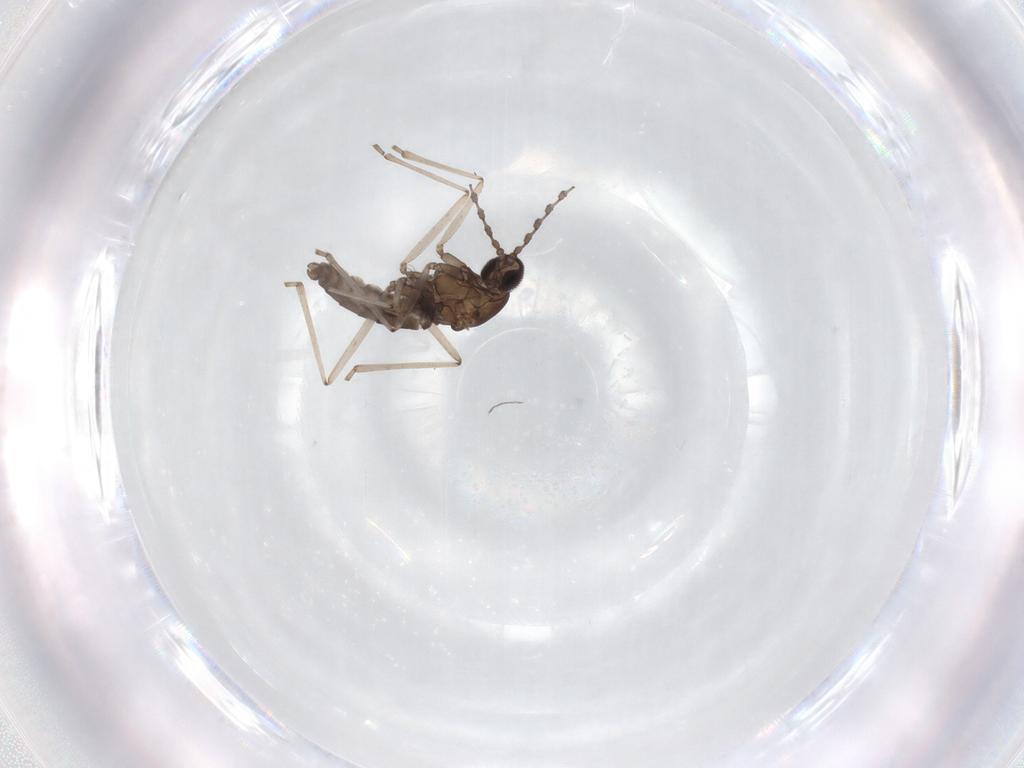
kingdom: Animalia
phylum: Arthropoda
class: Insecta
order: Diptera
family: Cecidomyiidae
